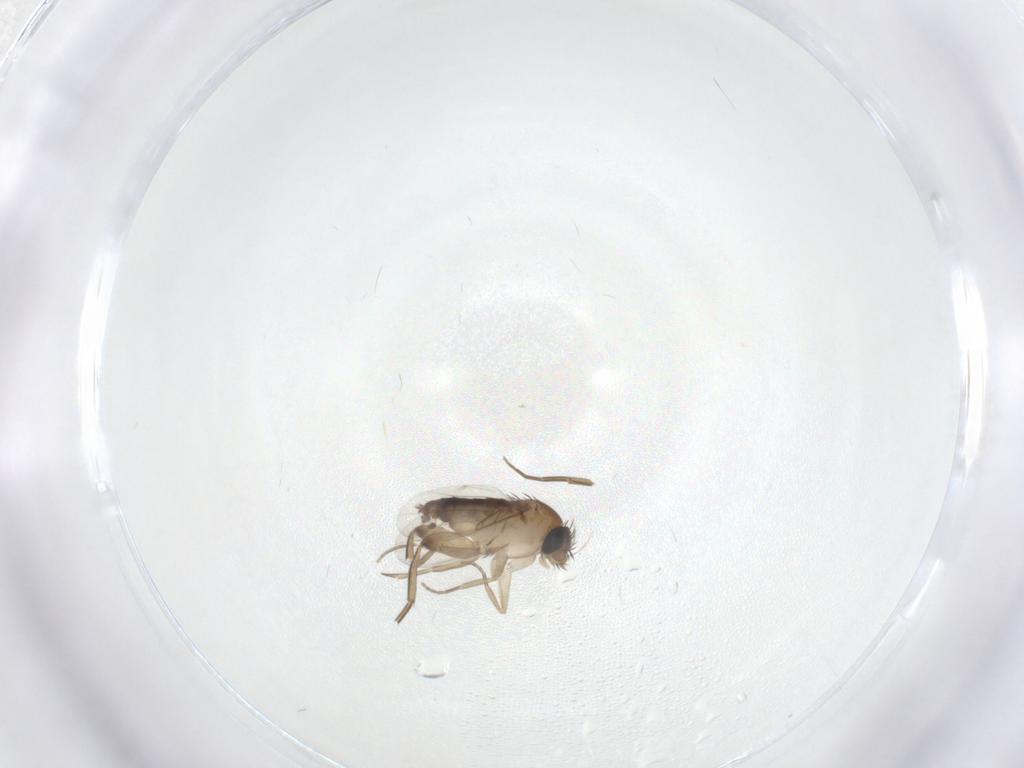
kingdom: Animalia
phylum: Arthropoda
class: Insecta
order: Diptera
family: Phoridae
